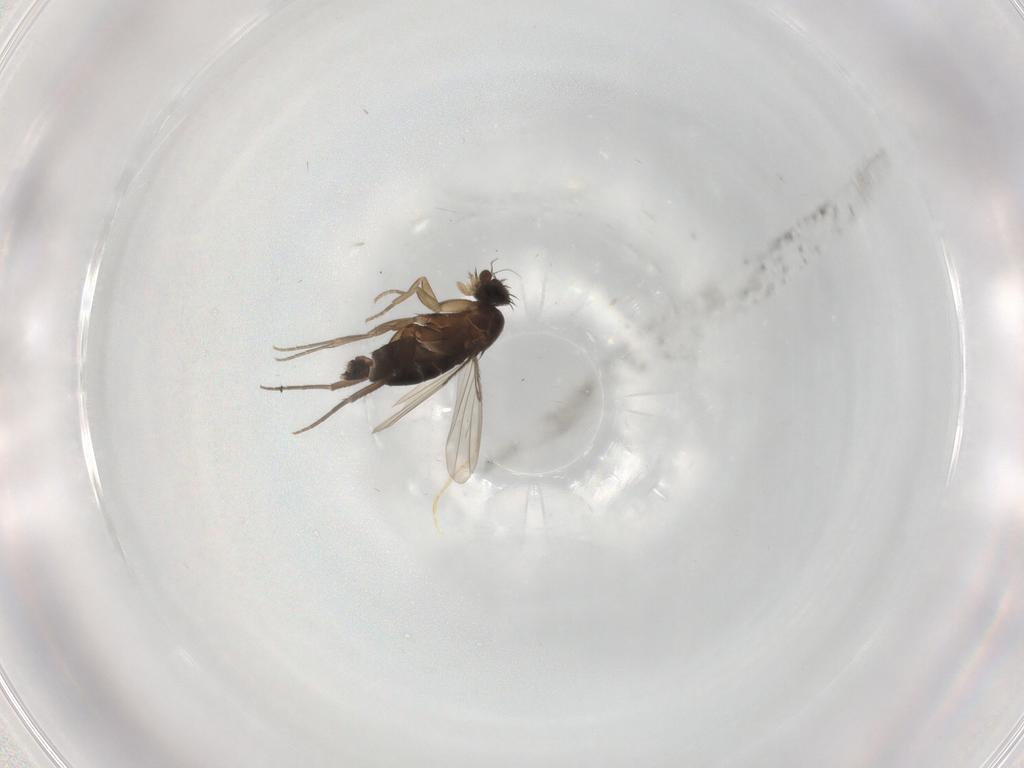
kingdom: Animalia
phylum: Arthropoda
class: Insecta
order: Diptera
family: Phoridae
